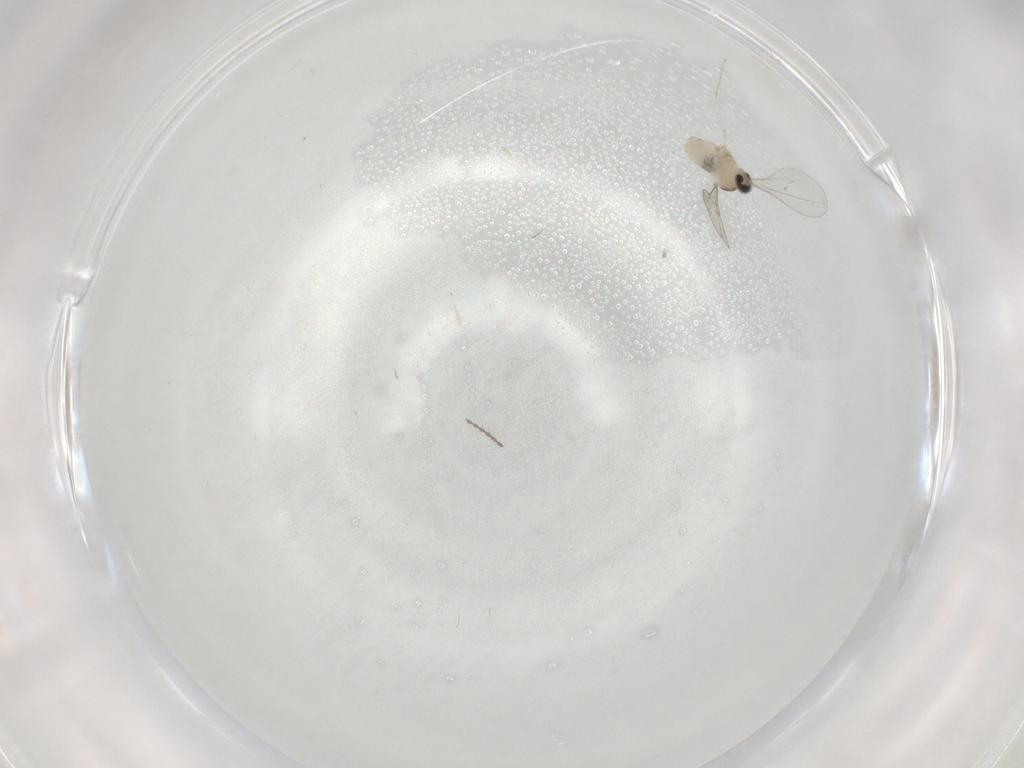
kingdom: Animalia
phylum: Arthropoda
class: Insecta
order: Diptera
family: Cecidomyiidae
